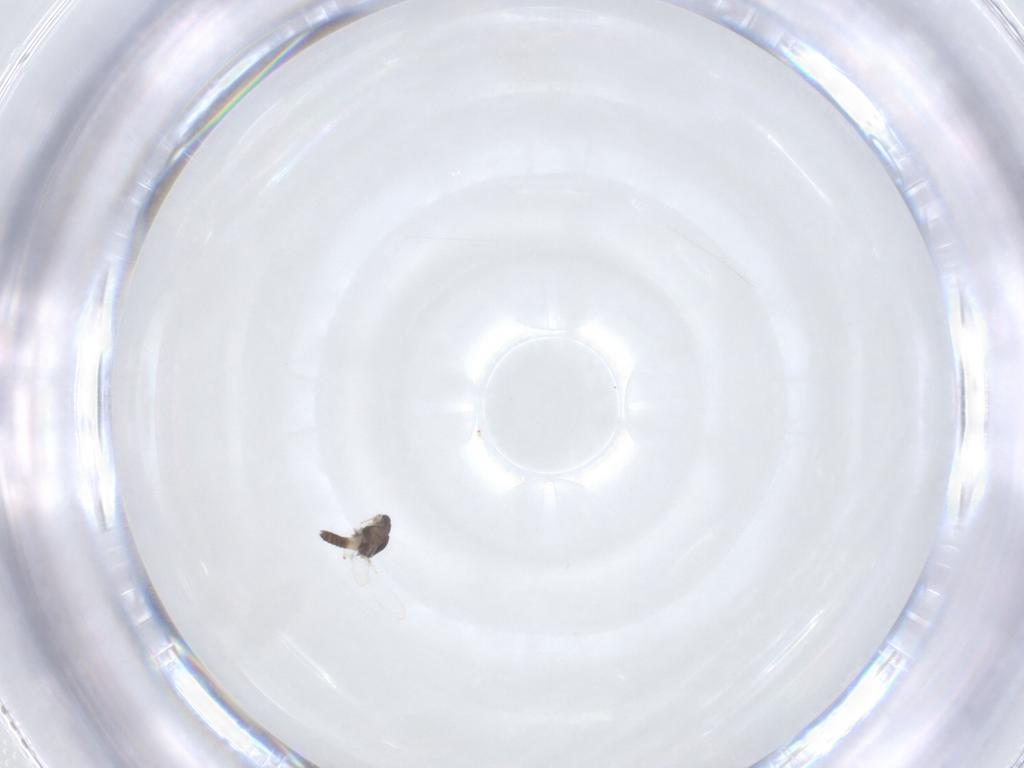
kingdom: Animalia
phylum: Arthropoda
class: Insecta
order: Diptera
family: Chironomidae
